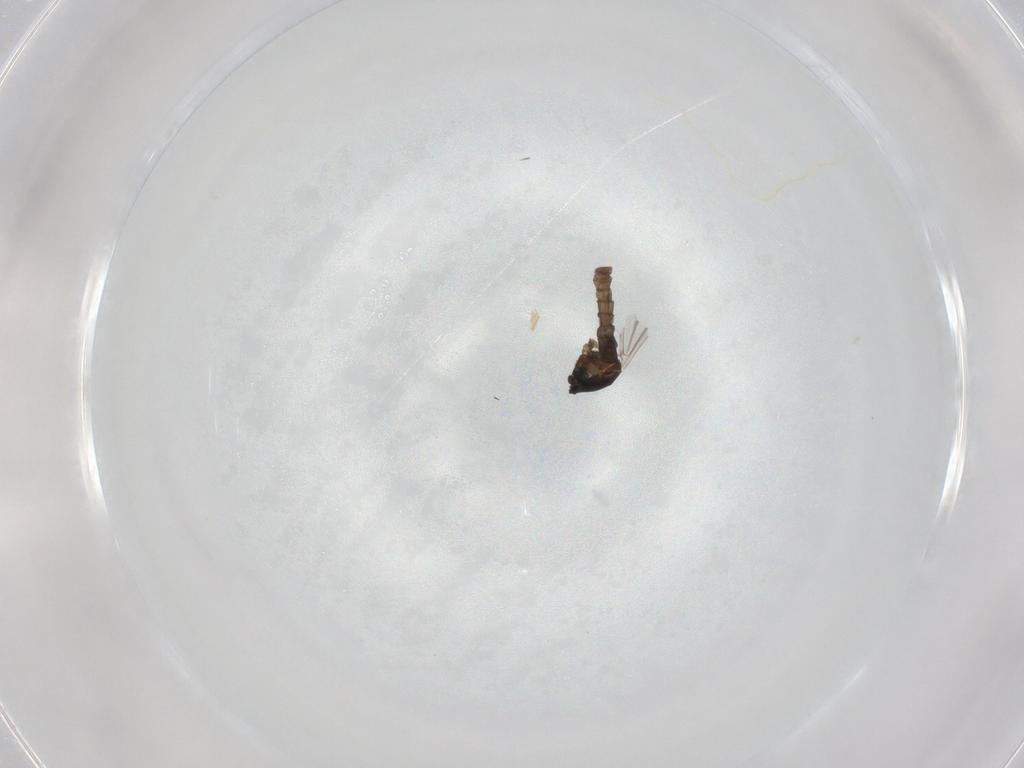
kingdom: Animalia
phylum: Arthropoda
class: Insecta
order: Diptera
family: Cecidomyiidae
